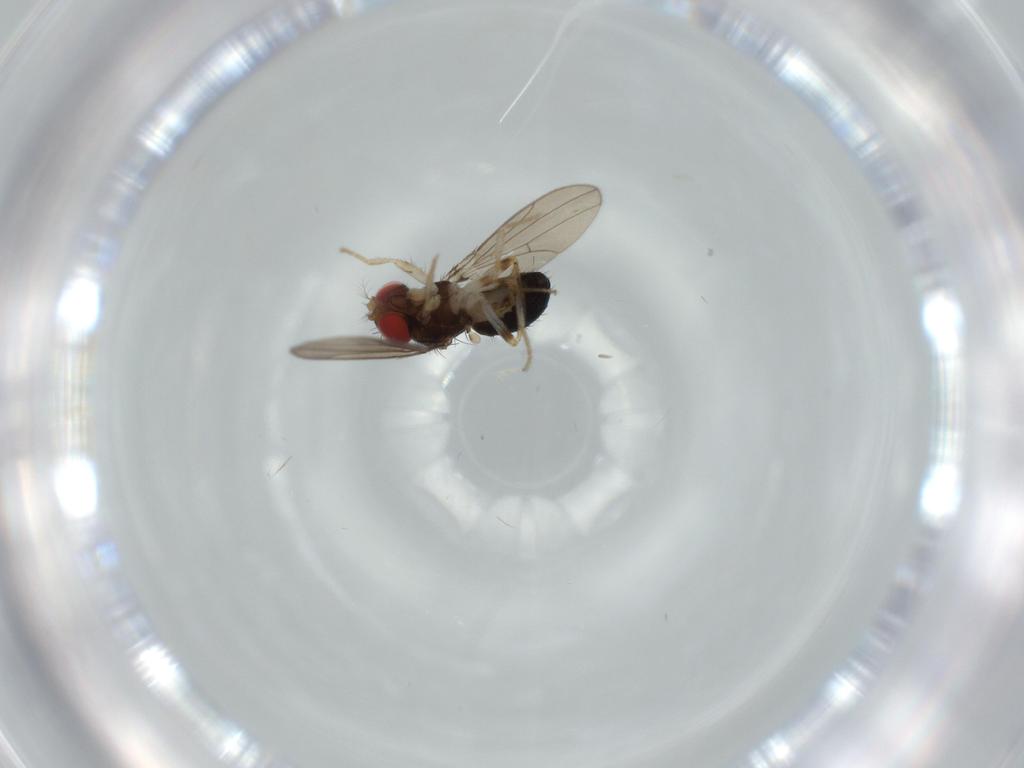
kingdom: Animalia
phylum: Arthropoda
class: Insecta
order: Diptera
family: Drosophilidae
